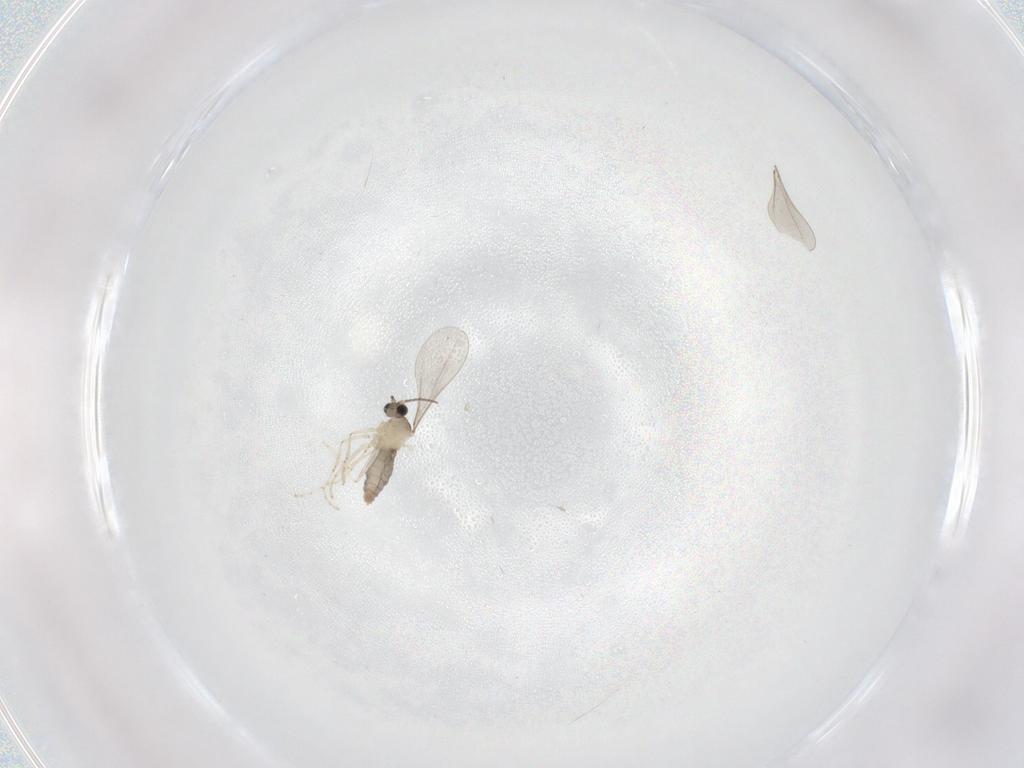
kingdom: Animalia
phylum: Arthropoda
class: Insecta
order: Diptera
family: Cecidomyiidae
